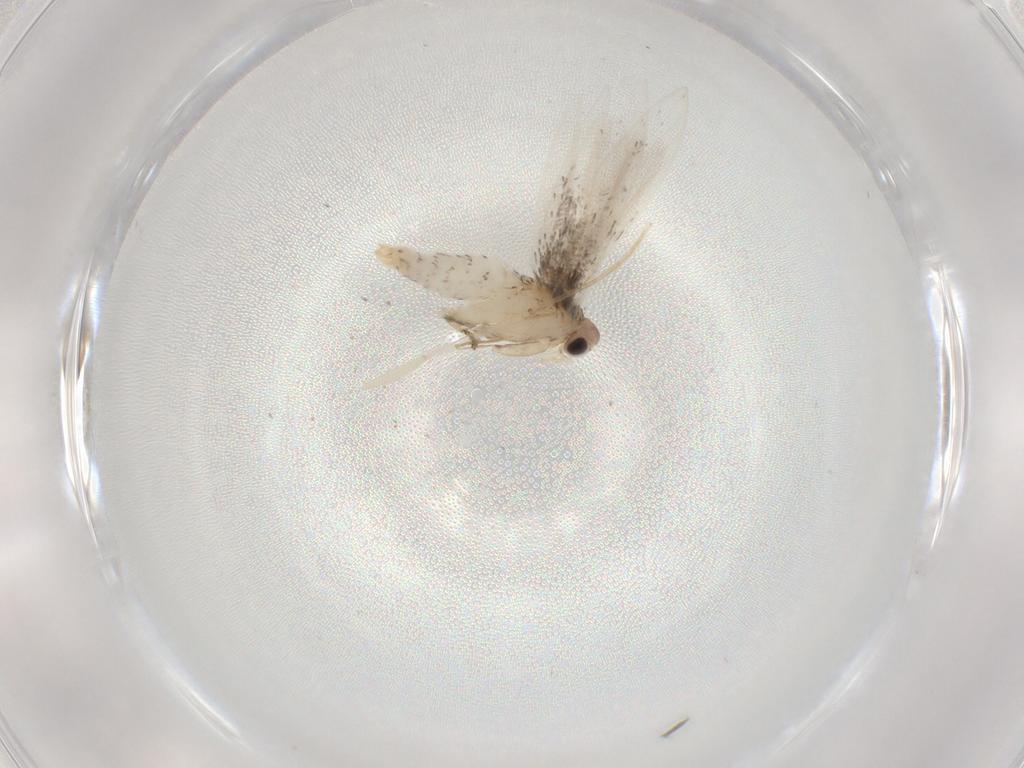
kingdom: Animalia
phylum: Arthropoda
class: Insecta
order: Lepidoptera
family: Tineidae
